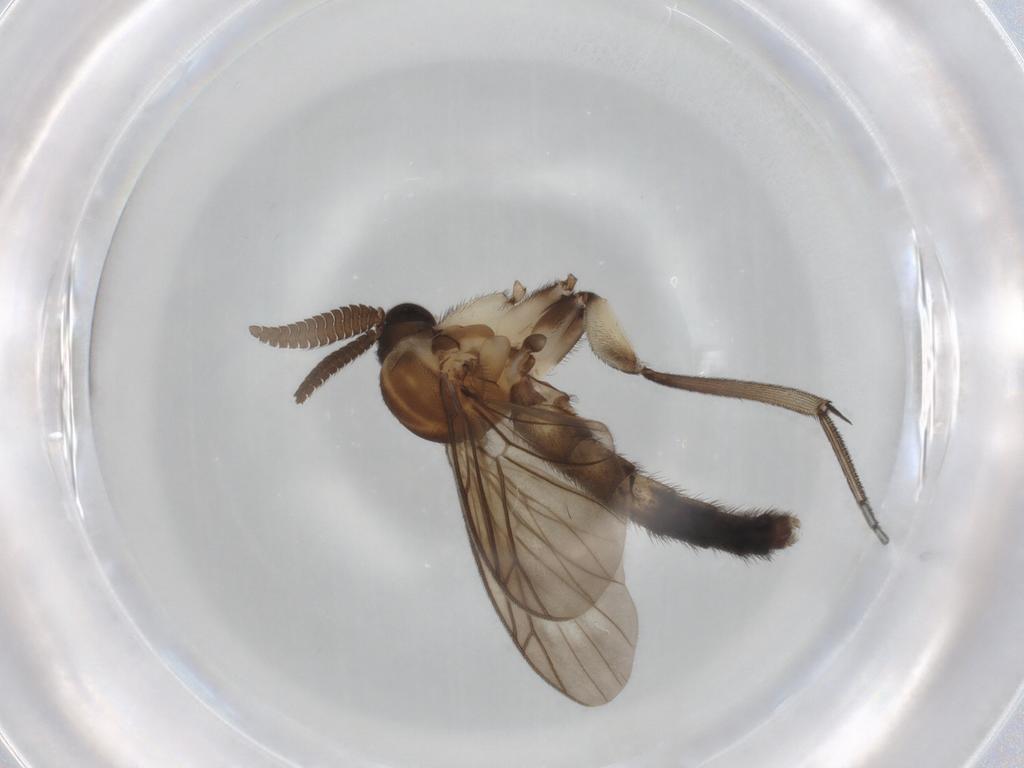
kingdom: Animalia
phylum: Arthropoda
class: Insecta
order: Diptera
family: Keroplatidae
